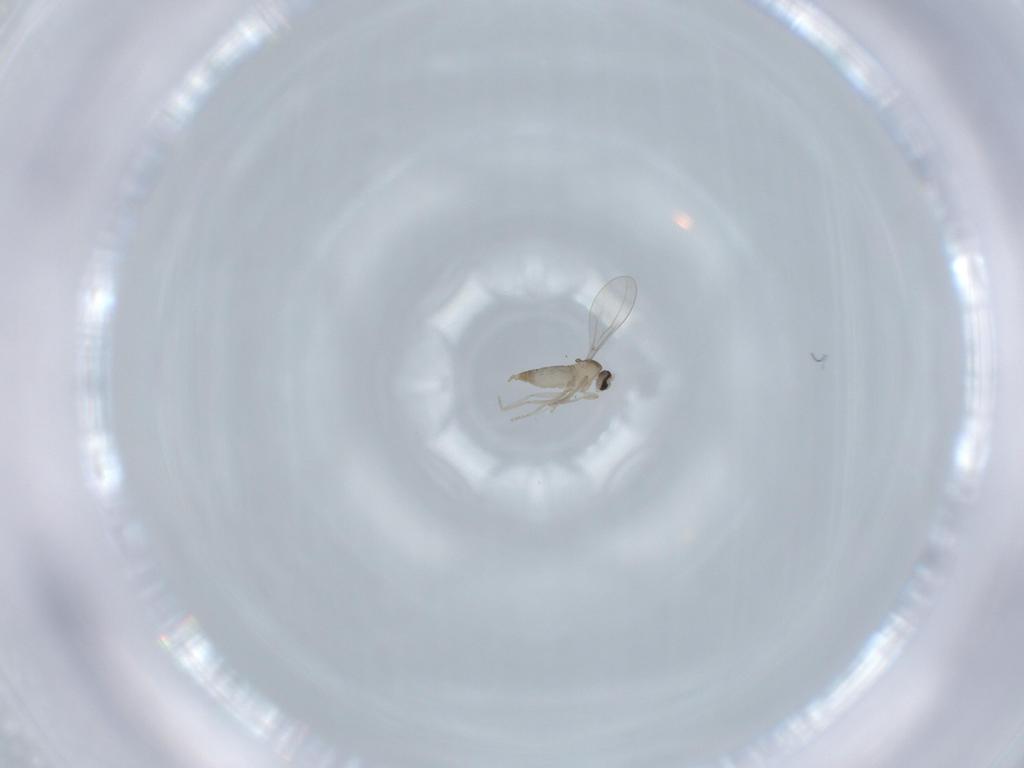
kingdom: Animalia
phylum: Arthropoda
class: Insecta
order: Diptera
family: Cecidomyiidae
